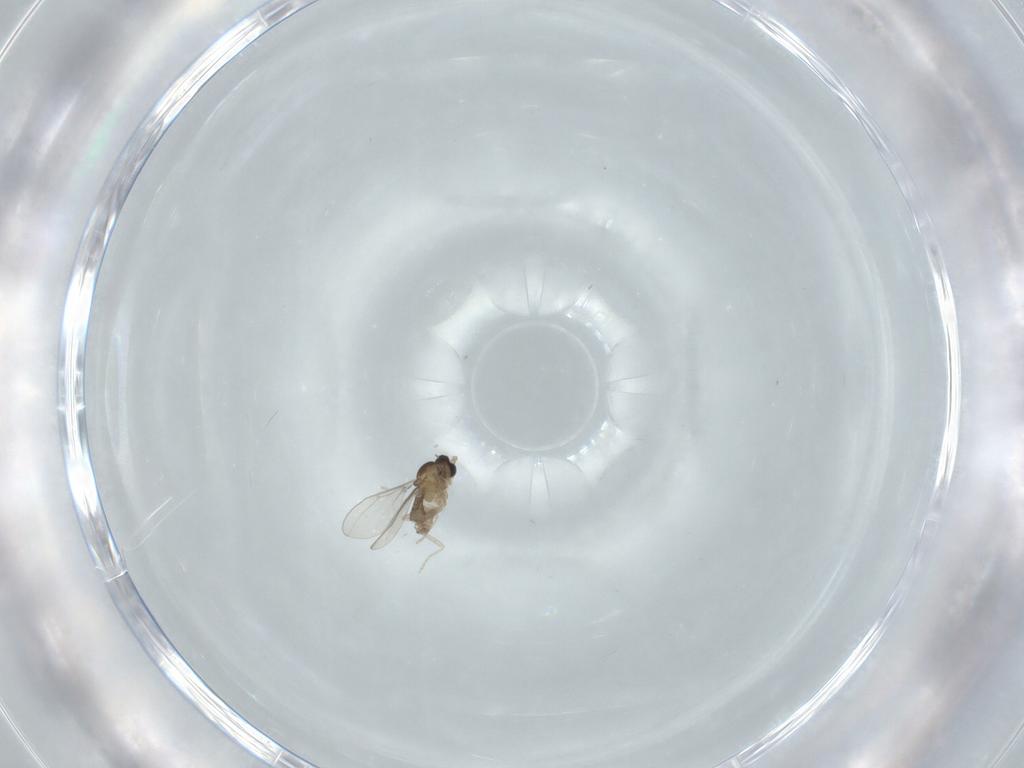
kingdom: Animalia
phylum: Arthropoda
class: Insecta
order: Diptera
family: Cecidomyiidae
